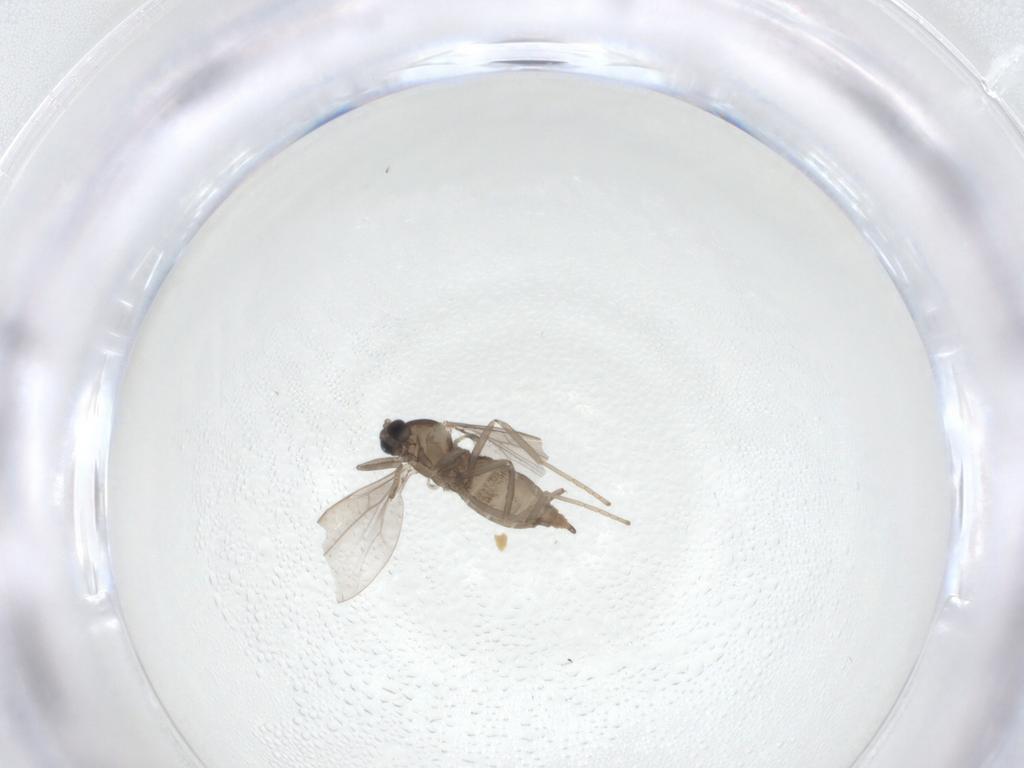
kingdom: Animalia
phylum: Arthropoda
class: Insecta
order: Diptera
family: Cecidomyiidae
